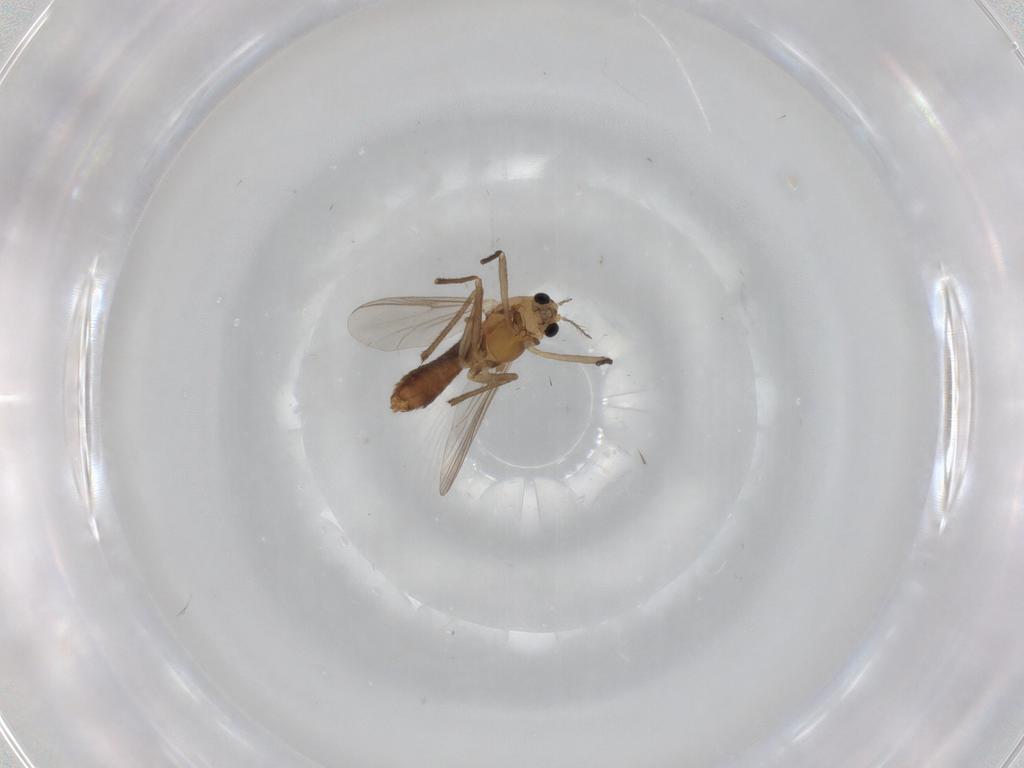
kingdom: Animalia
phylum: Arthropoda
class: Insecta
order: Diptera
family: Chironomidae
